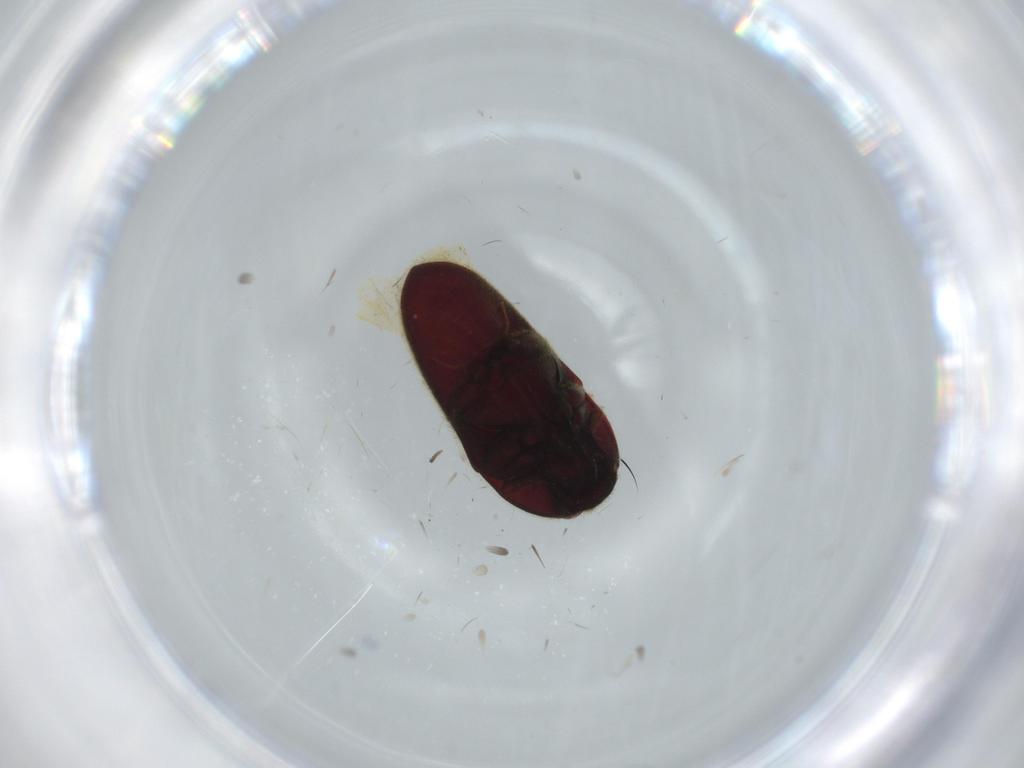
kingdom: Animalia
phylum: Arthropoda
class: Insecta
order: Coleoptera
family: Throscidae
